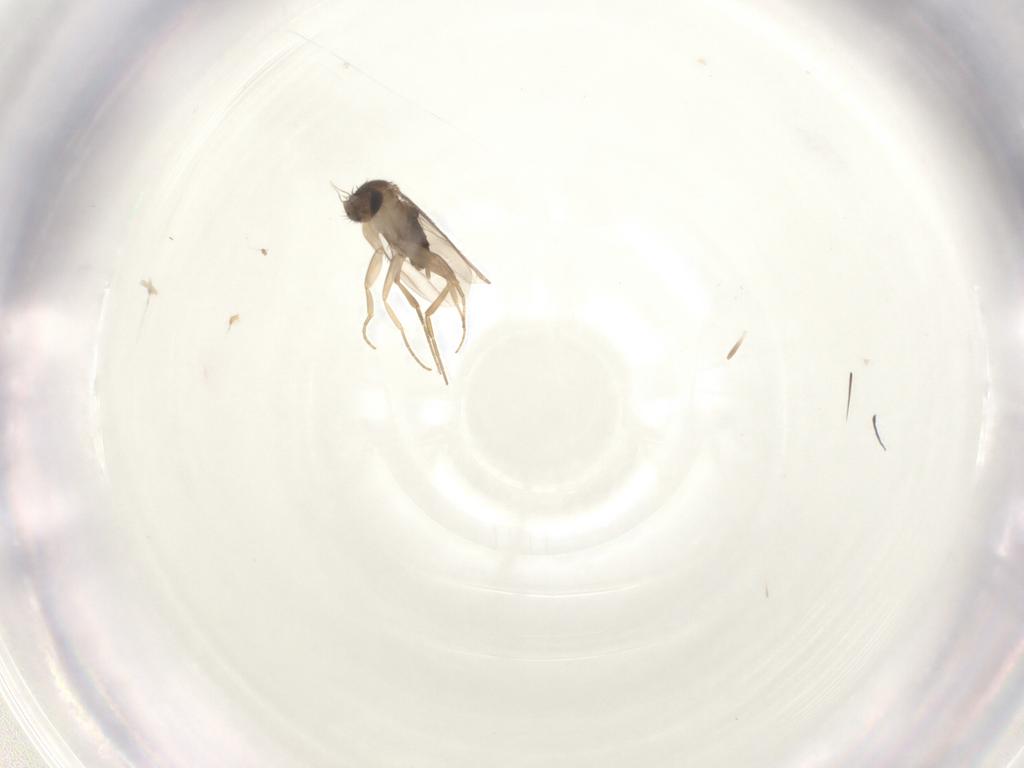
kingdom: Animalia
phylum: Arthropoda
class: Insecta
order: Diptera
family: Phoridae
